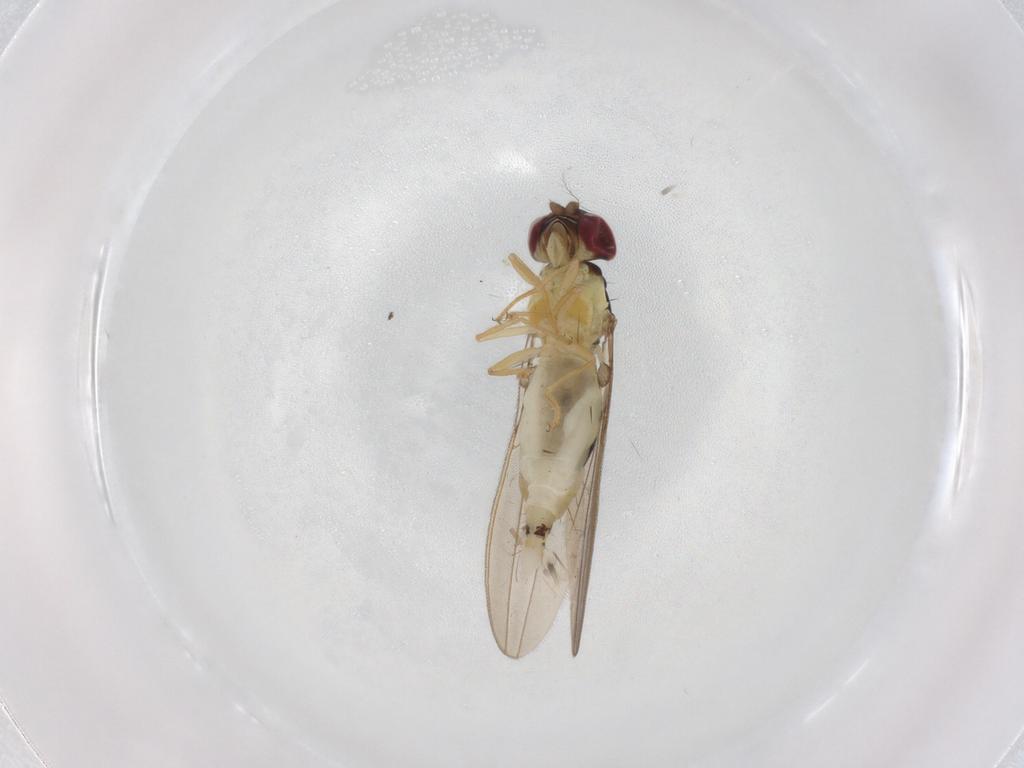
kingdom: Animalia
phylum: Arthropoda
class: Insecta
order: Diptera
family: Asteiidae
